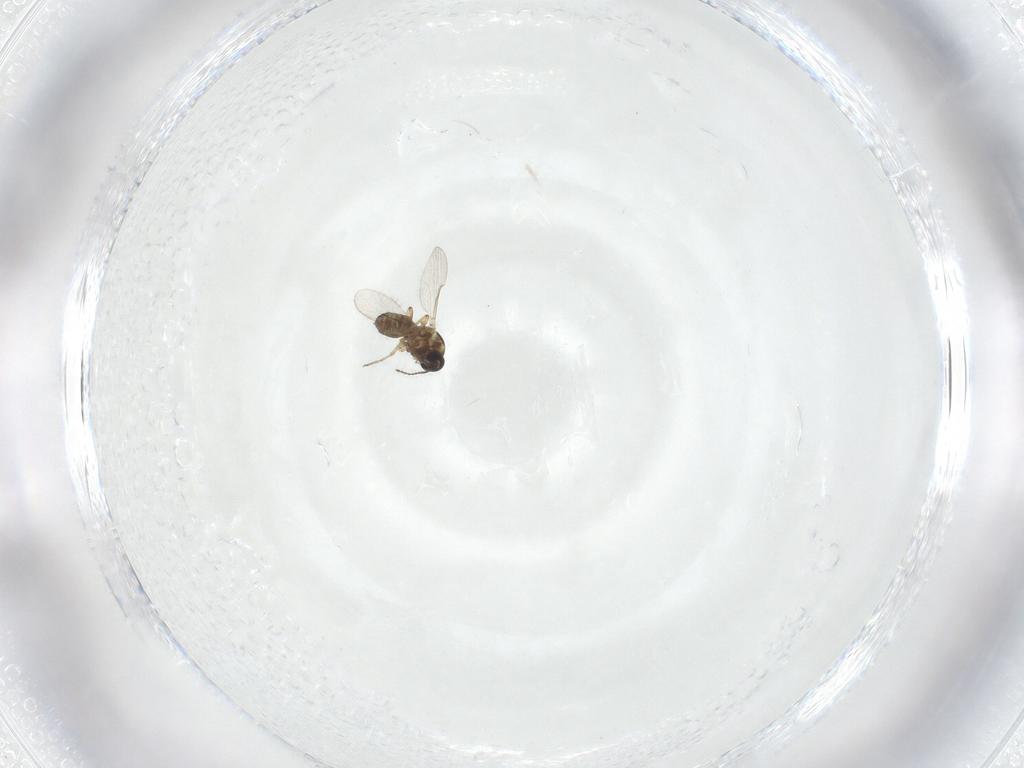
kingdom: Animalia
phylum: Arthropoda
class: Insecta
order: Diptera
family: Ceratopogonidae
